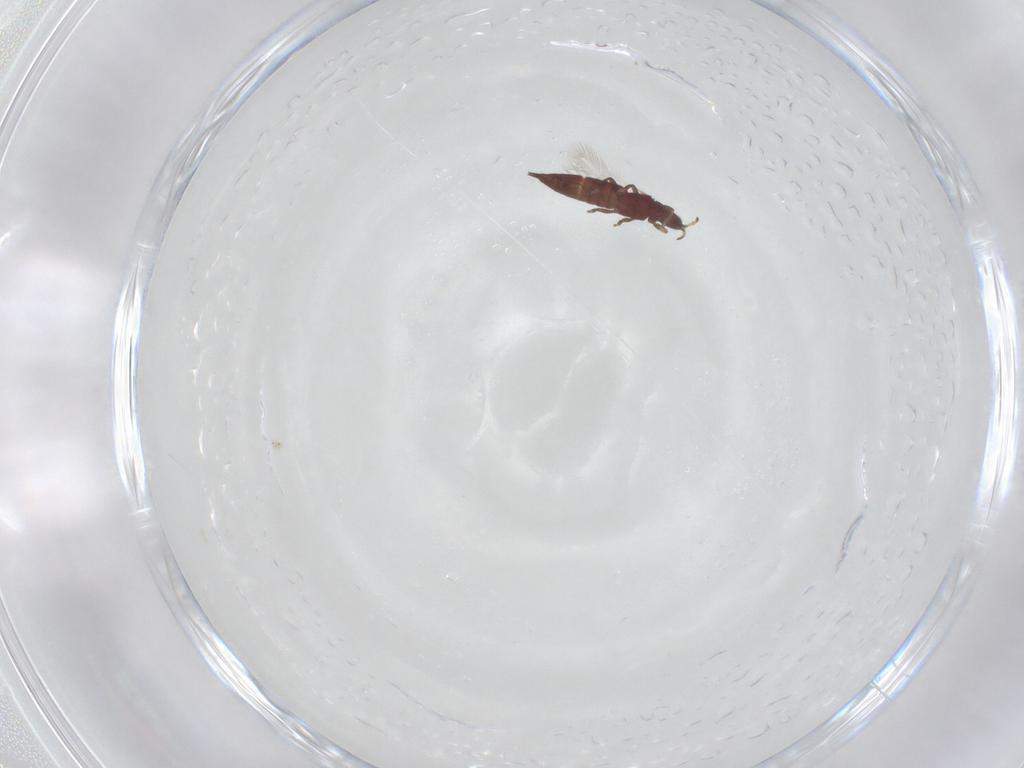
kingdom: Animalia
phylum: Arthropoda
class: Insecta
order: Thysanoptera
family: Phlaeothripidae
